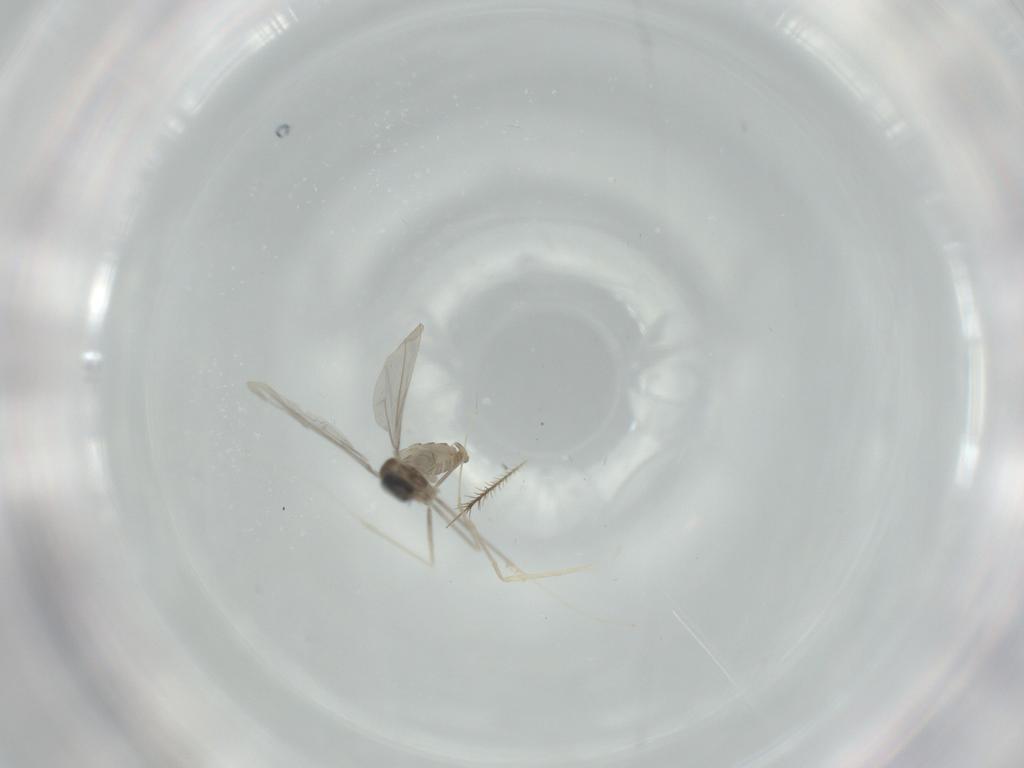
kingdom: Animalia
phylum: Arthropoda
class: Insecta
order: Diptera
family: Cecidomyiidae
